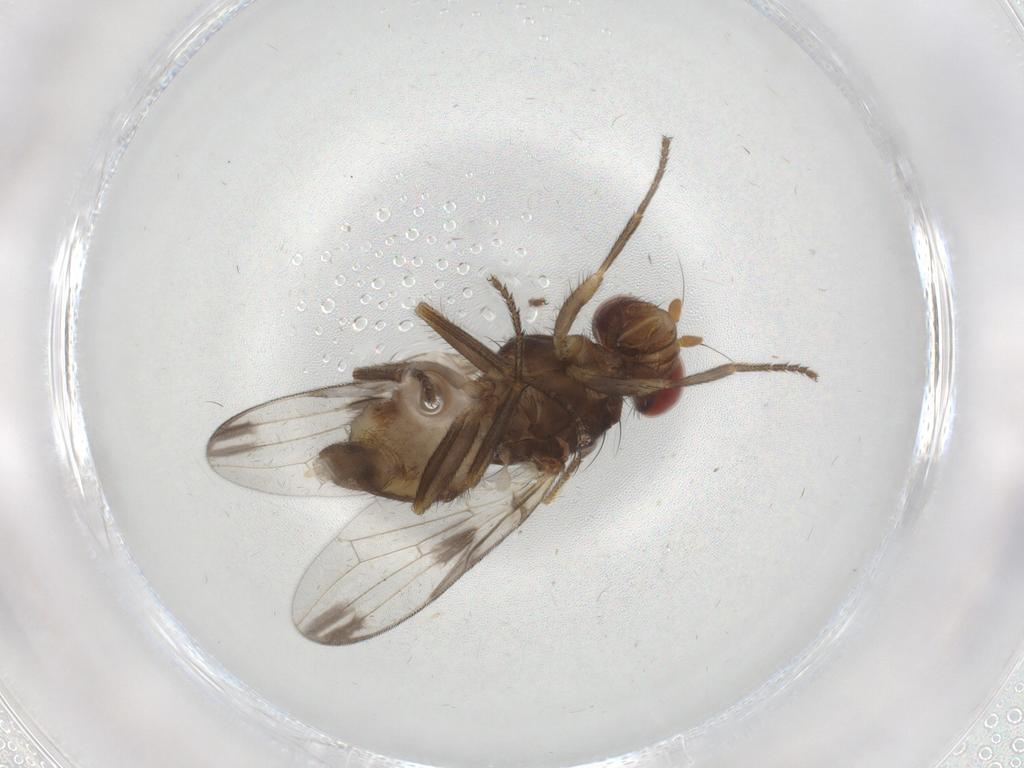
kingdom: Animalia
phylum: Arthropoda
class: Insecta
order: Diptera
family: Ulidiidae
